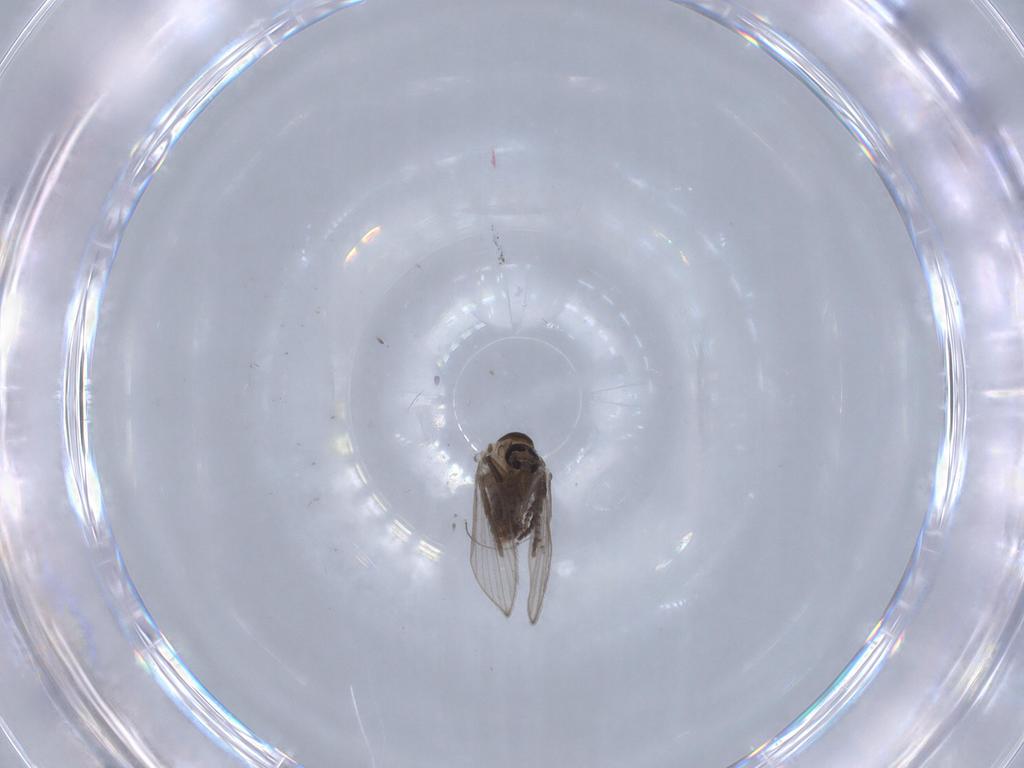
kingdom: Animalia
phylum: Arthropoda
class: Insecta
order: Diptera
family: Psychodidae
